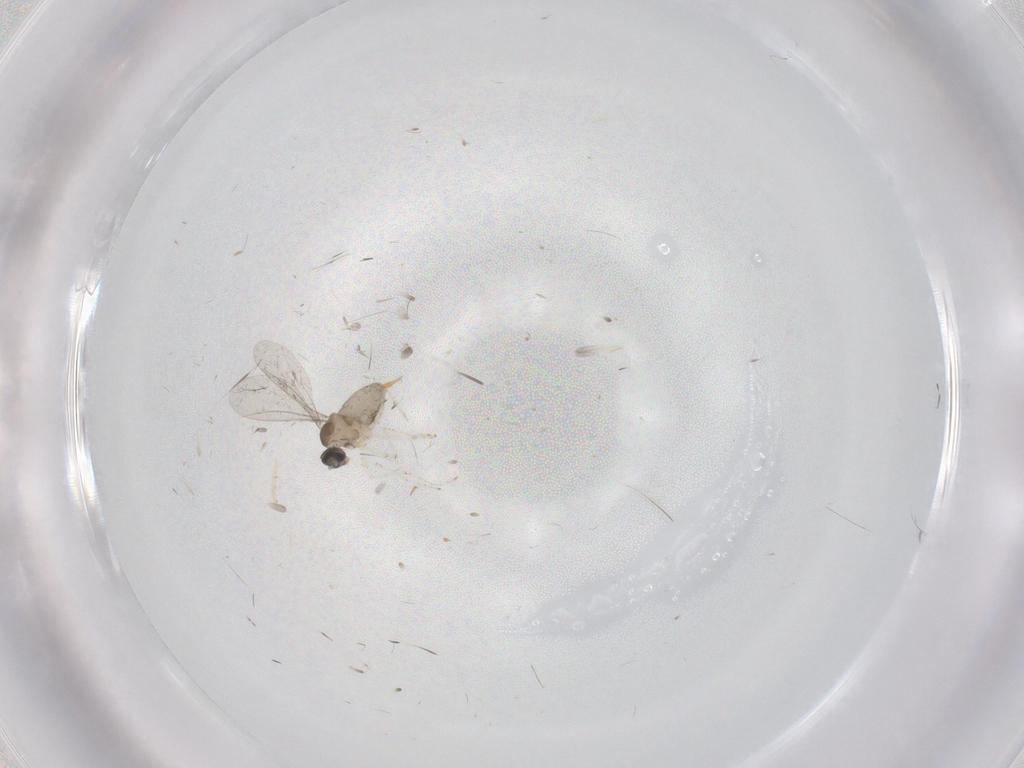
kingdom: Animalia
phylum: Arthropoda
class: Insecta
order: Diptera
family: Cecidomyiidae
